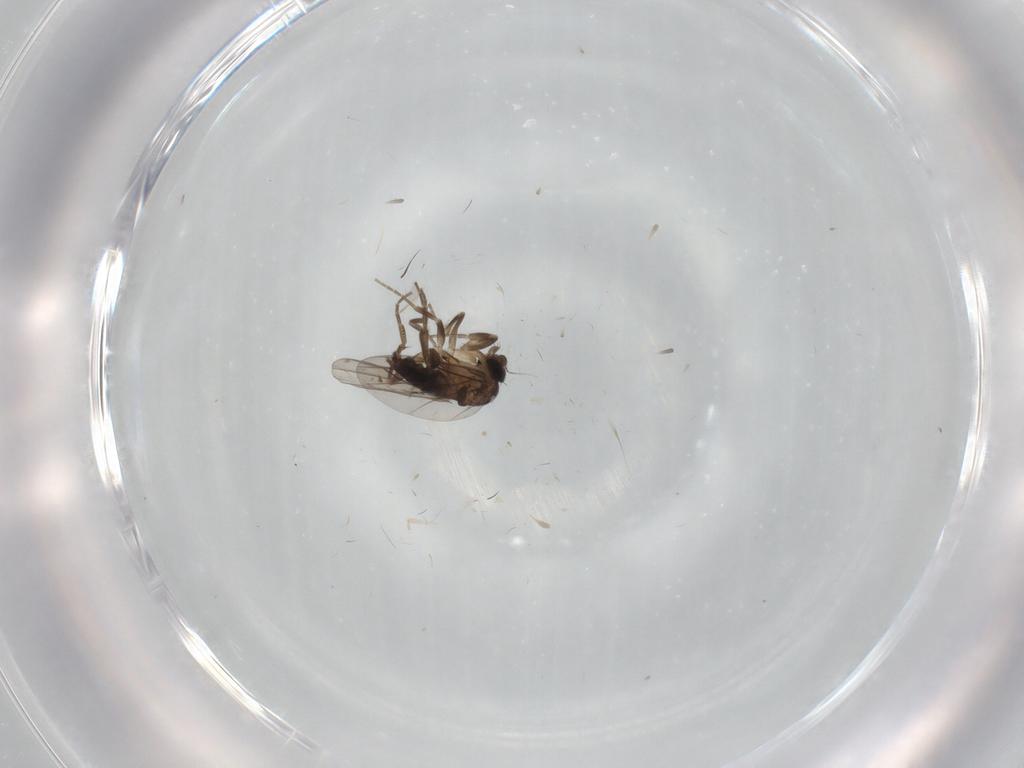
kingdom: Animalia
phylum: Arthropoda
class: Insecta
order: Diptera
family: Phoridae
